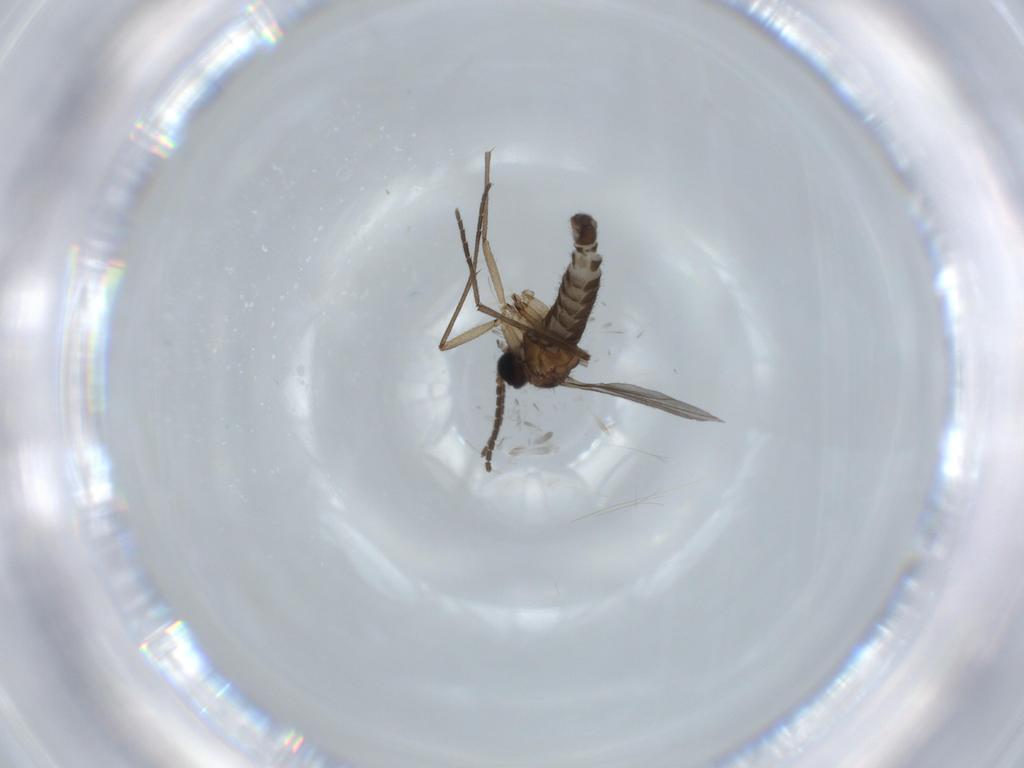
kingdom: Animalia
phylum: Arthropoda
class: Insecta
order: Diptera
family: Sciaridae
